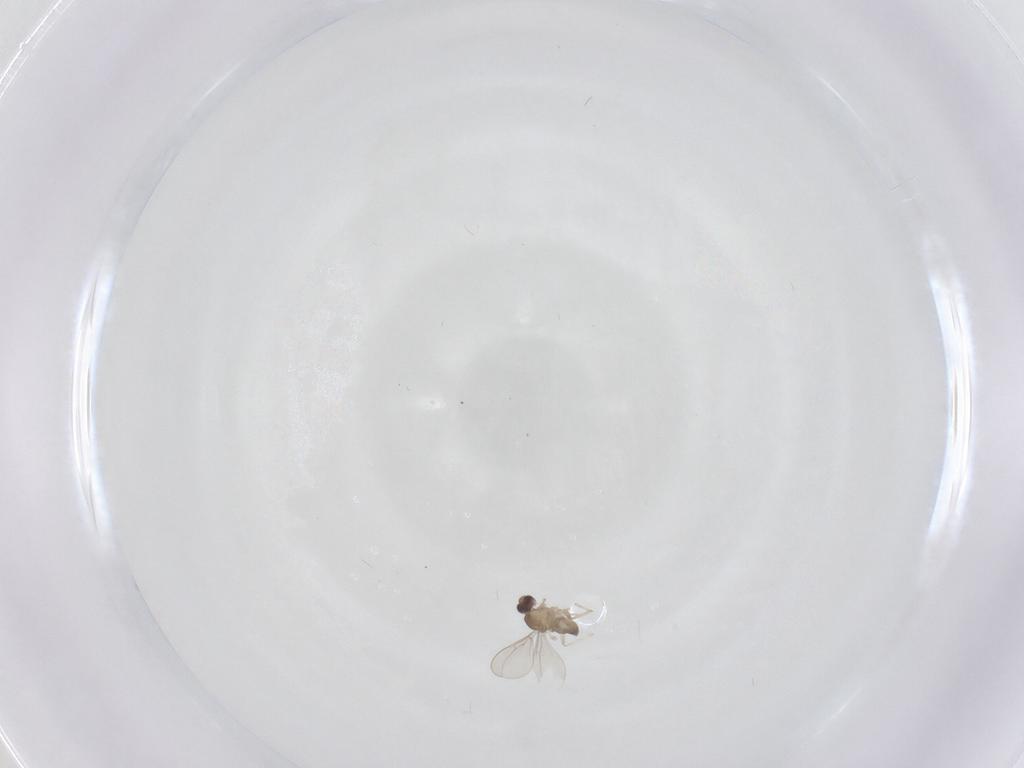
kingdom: Animalia
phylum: Arthropoda
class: Insecta
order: Diptera
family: Cecidomyiidae
